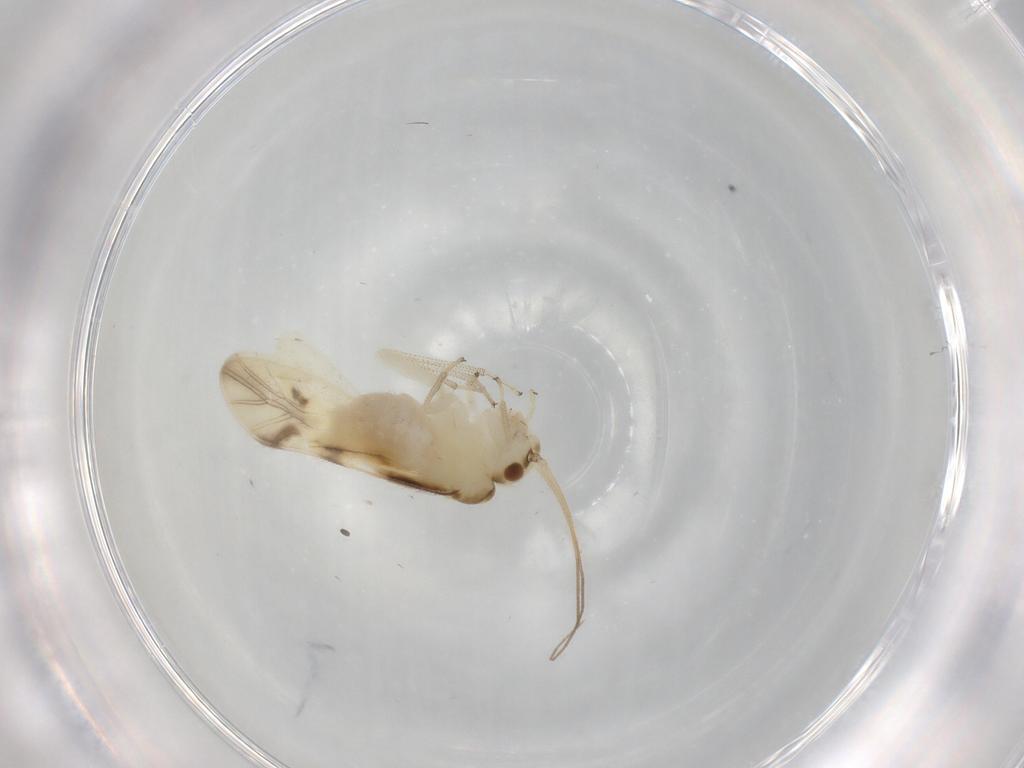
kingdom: Animalia
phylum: Arthropoda
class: Insecta
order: Psocodea
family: Caeciliusidae
